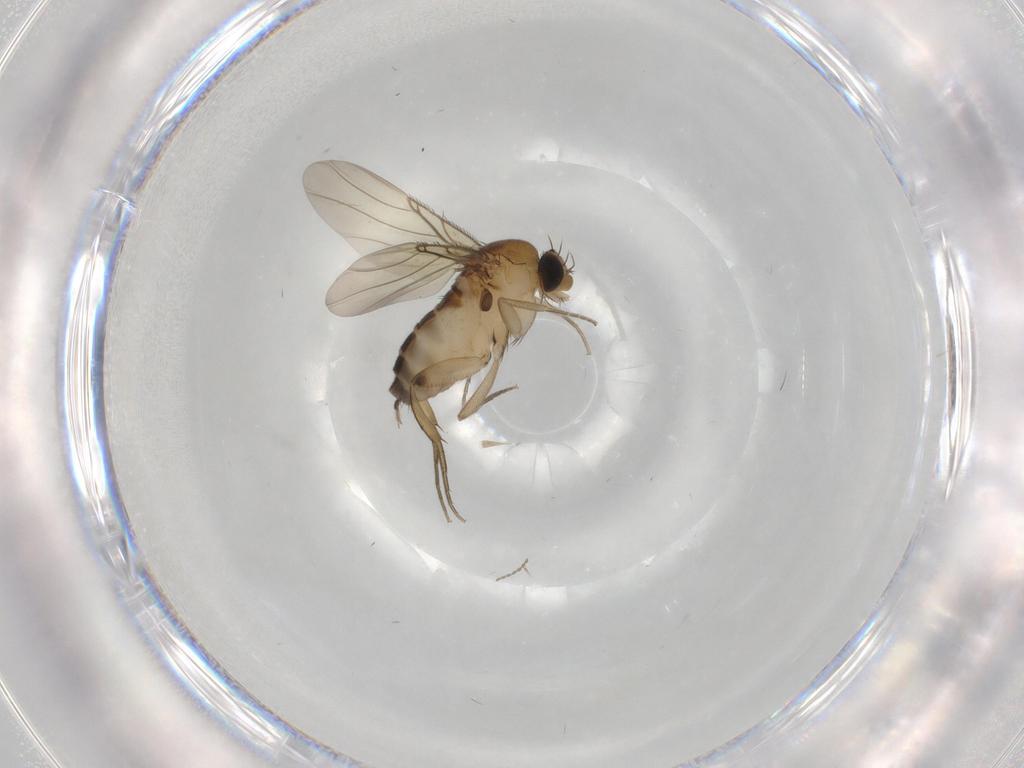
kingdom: Animalia
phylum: Arthropoda
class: Insecta
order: Diptera
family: Phoridae
